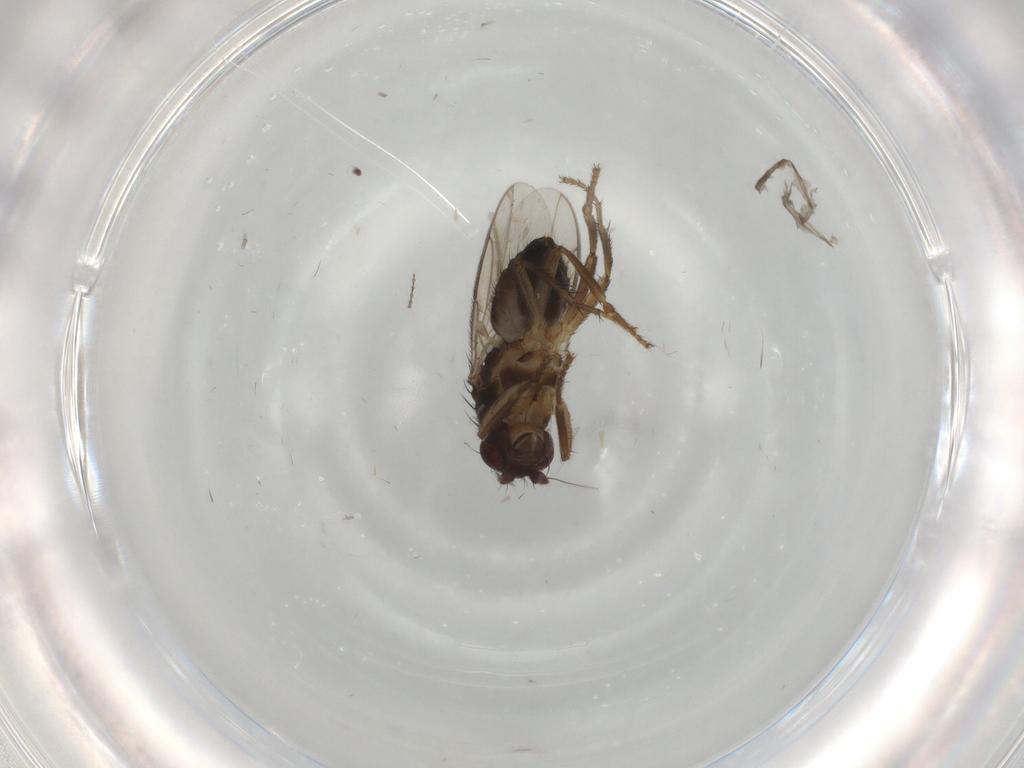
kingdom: Animalia
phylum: Arthropoda
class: Insecta
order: Diptera
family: Sphaeroceridae
